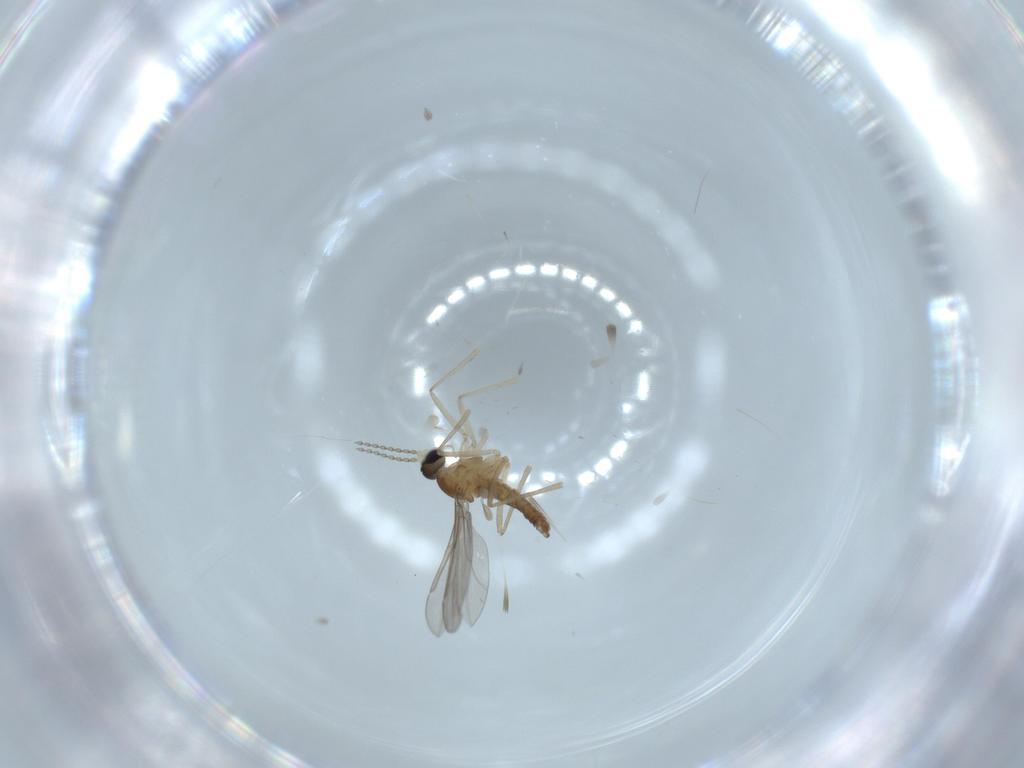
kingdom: Animalia
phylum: Arthropoda
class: Insecta
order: Diptera
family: Cecidomyiidae
